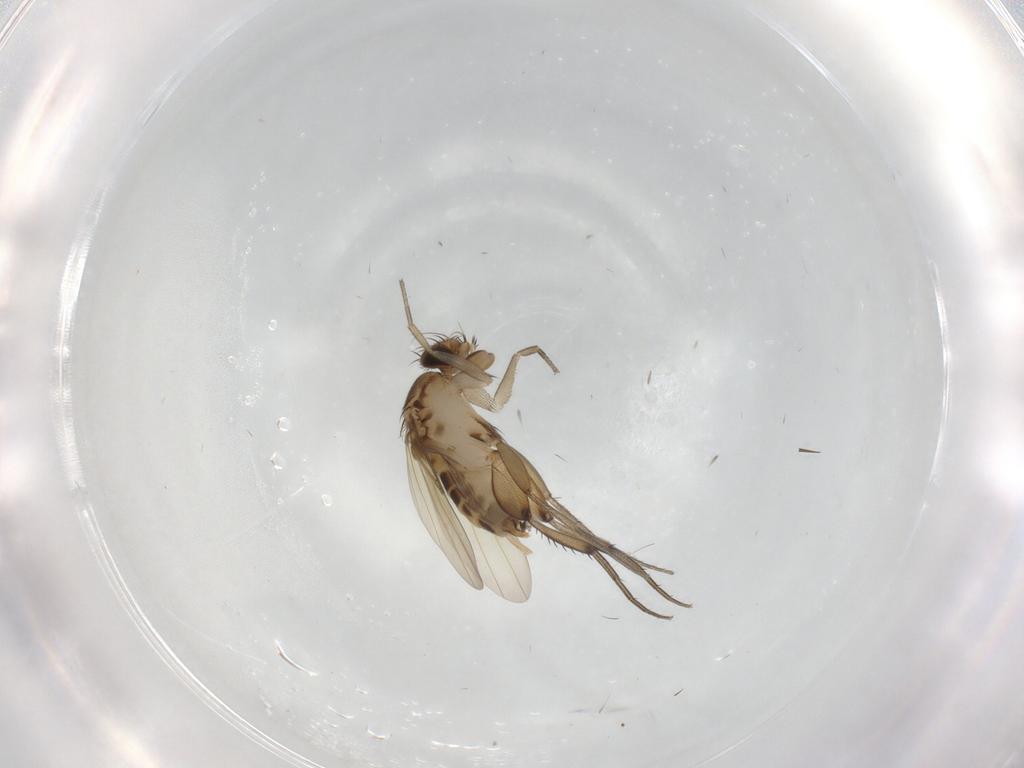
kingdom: Animalia
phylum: Arthropoda
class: Insecta
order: Diptera
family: Phoridae
